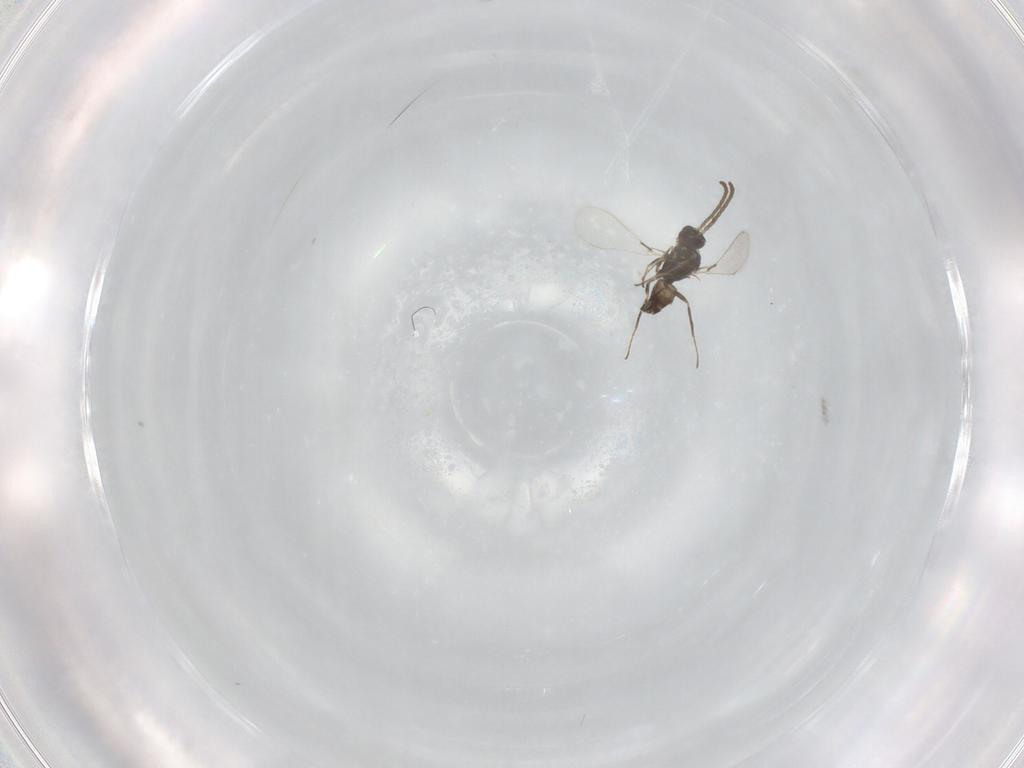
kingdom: Animalia
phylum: Arthropoda
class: Insecta
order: Hymenoptera
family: Mymaridae
